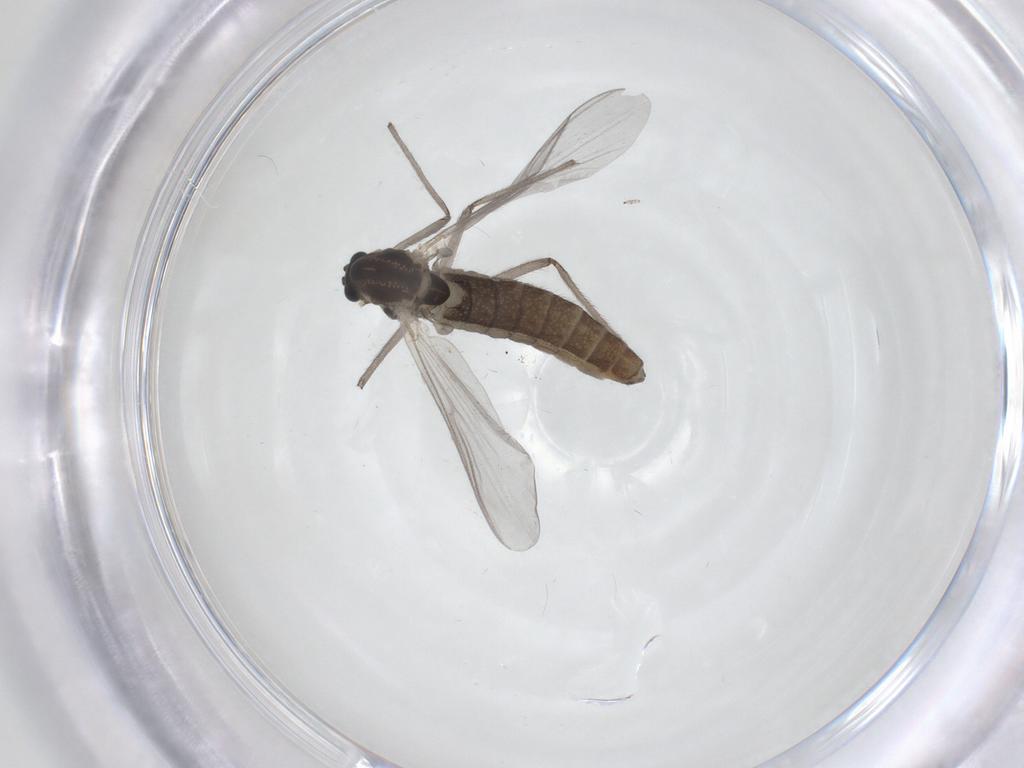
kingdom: Animalia
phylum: Arthropoda
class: Insecta
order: Diptera
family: Chironomidae
